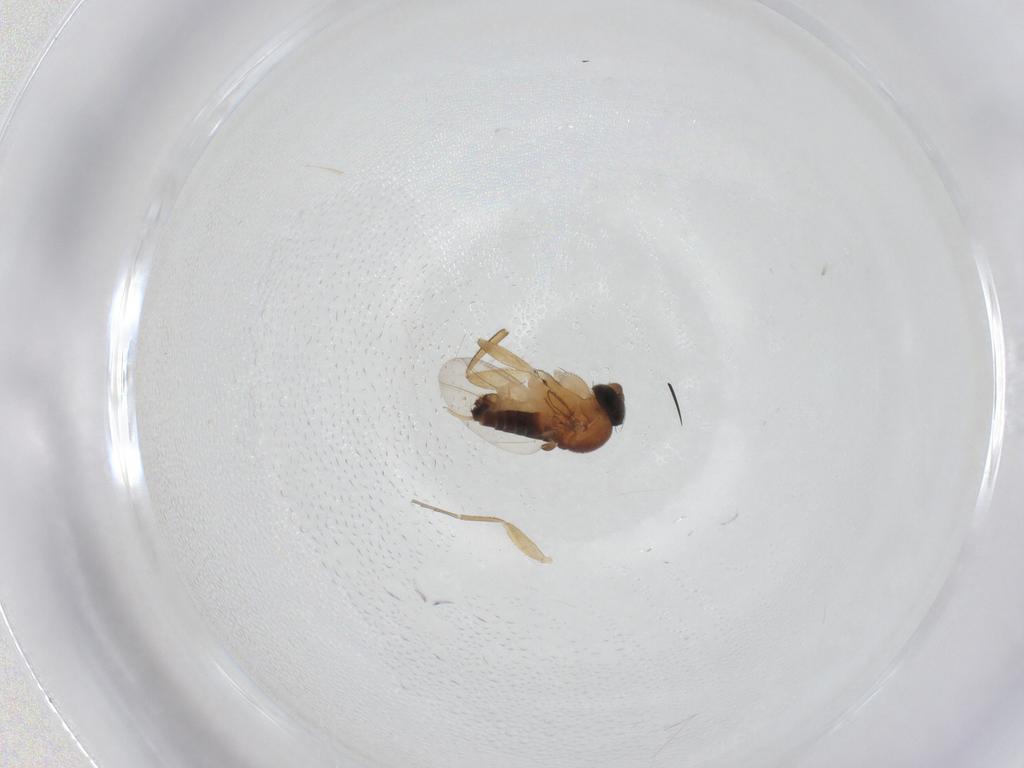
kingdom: Animalia
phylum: Arthropoda
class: Insecta
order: Diptera
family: Phoridae
